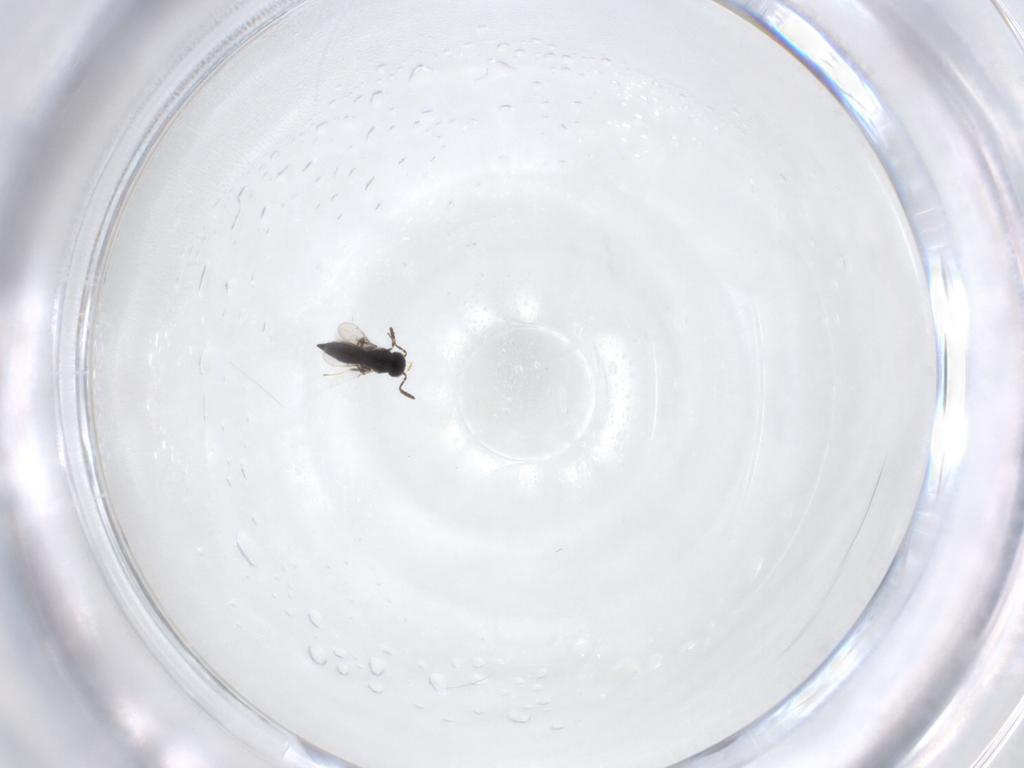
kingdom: Animalia
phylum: Arthropoda
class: Insecta
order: Hymenoptera
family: Scelionidae
